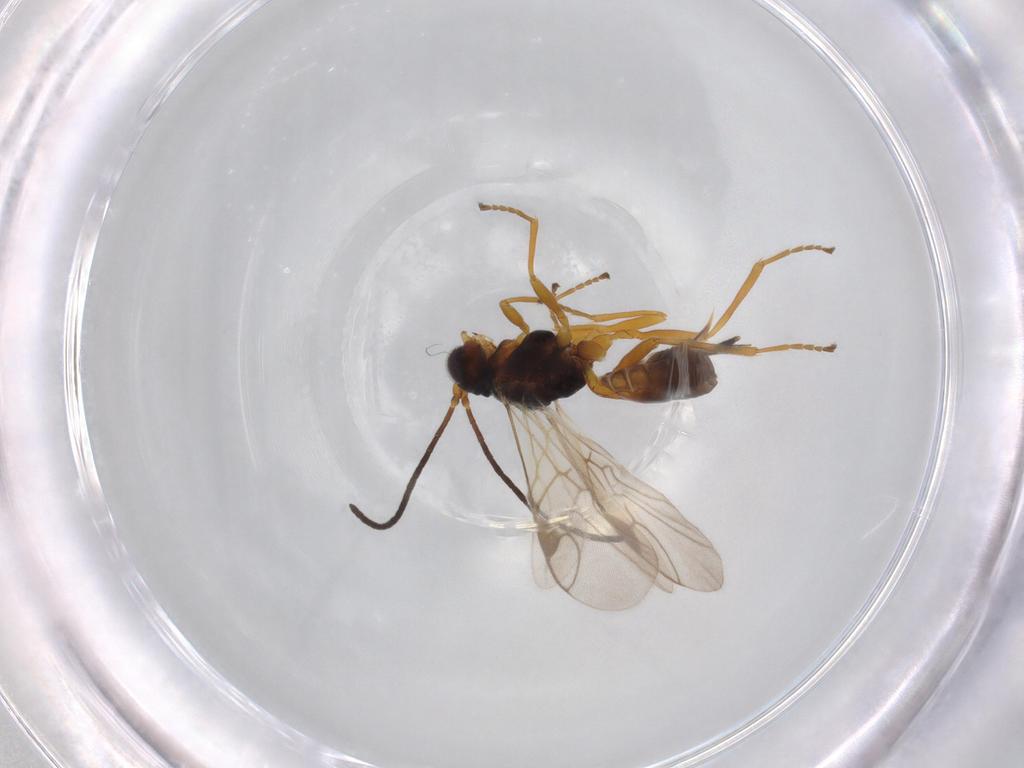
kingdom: Animalia
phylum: Arthropoda
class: Insecta
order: Hymenoptera
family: Braconidae
